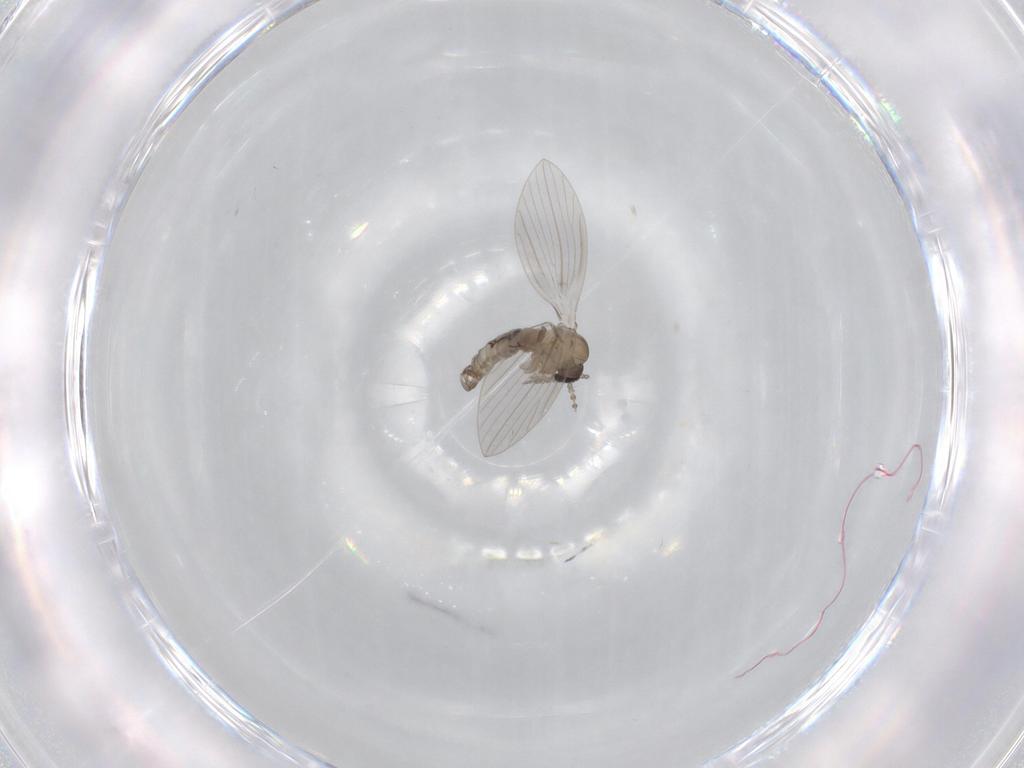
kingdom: Animalia
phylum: Arthropoda
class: Insecta
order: Diptera
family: Psychodidae
